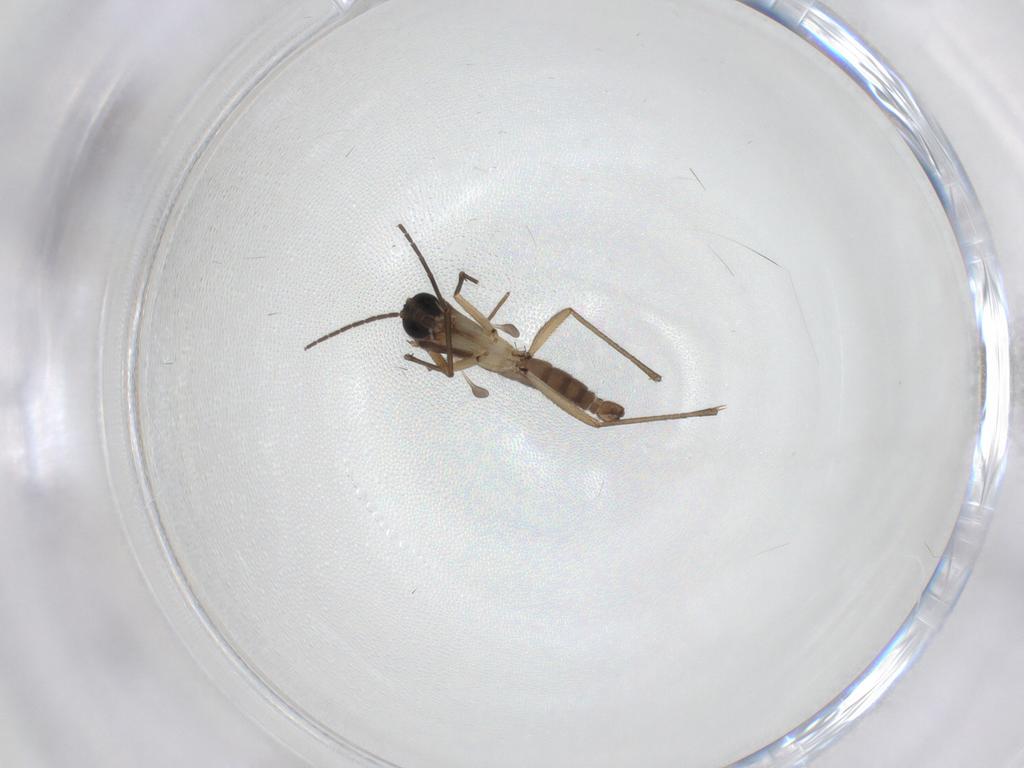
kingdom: Animalia
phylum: Arthropoda
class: Insecta
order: Diptera
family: Sciaridae
